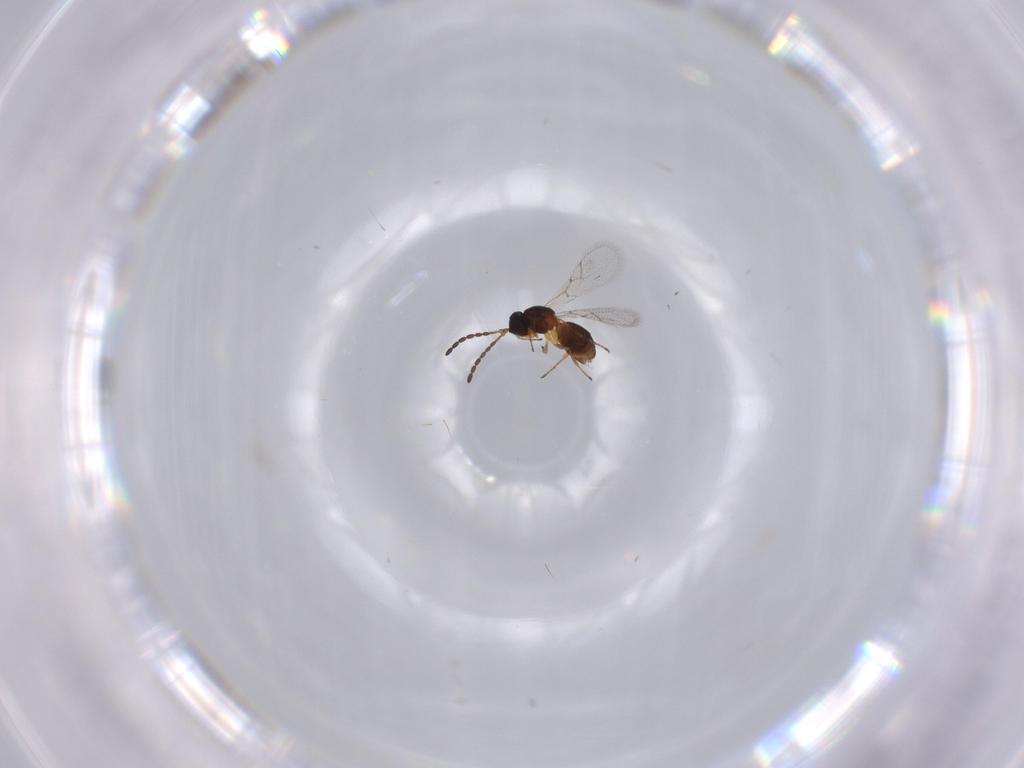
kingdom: Animalia
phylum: Arthropoda
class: Insecta
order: Hymenoptera
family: Figitidae
